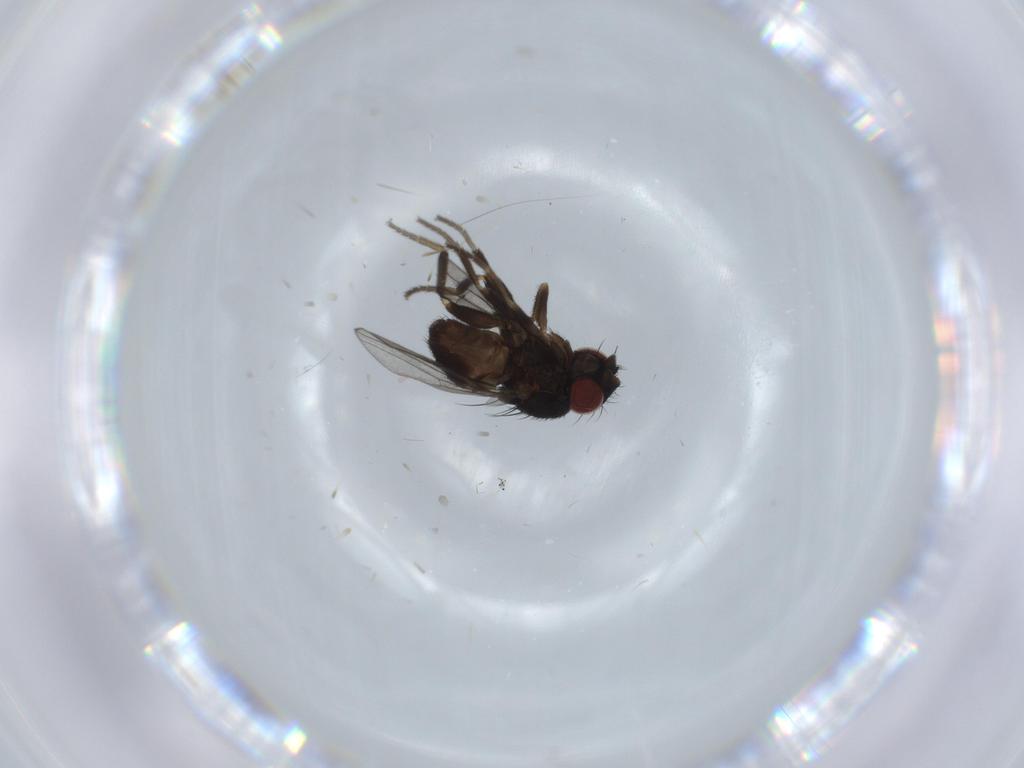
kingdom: Animalia
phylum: Arthropoda
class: Insecta
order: Diptera
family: Milichiidae
